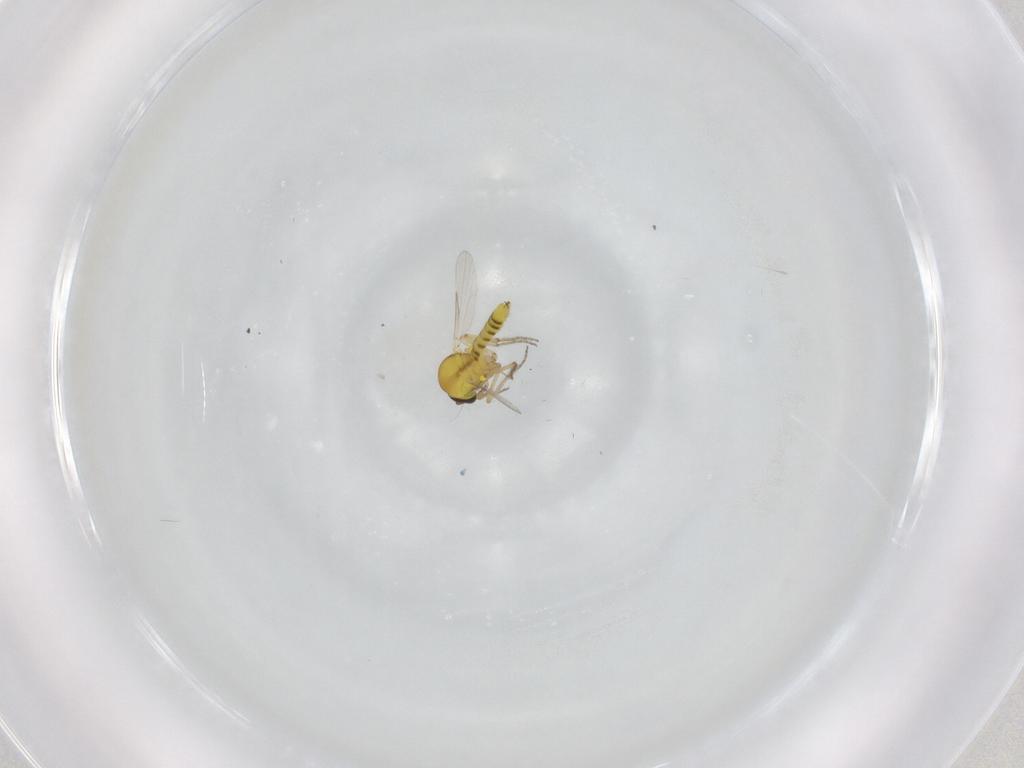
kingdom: Animalia
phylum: Arthropoda
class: Insecta
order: Diptera
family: Ceratopogonidae
